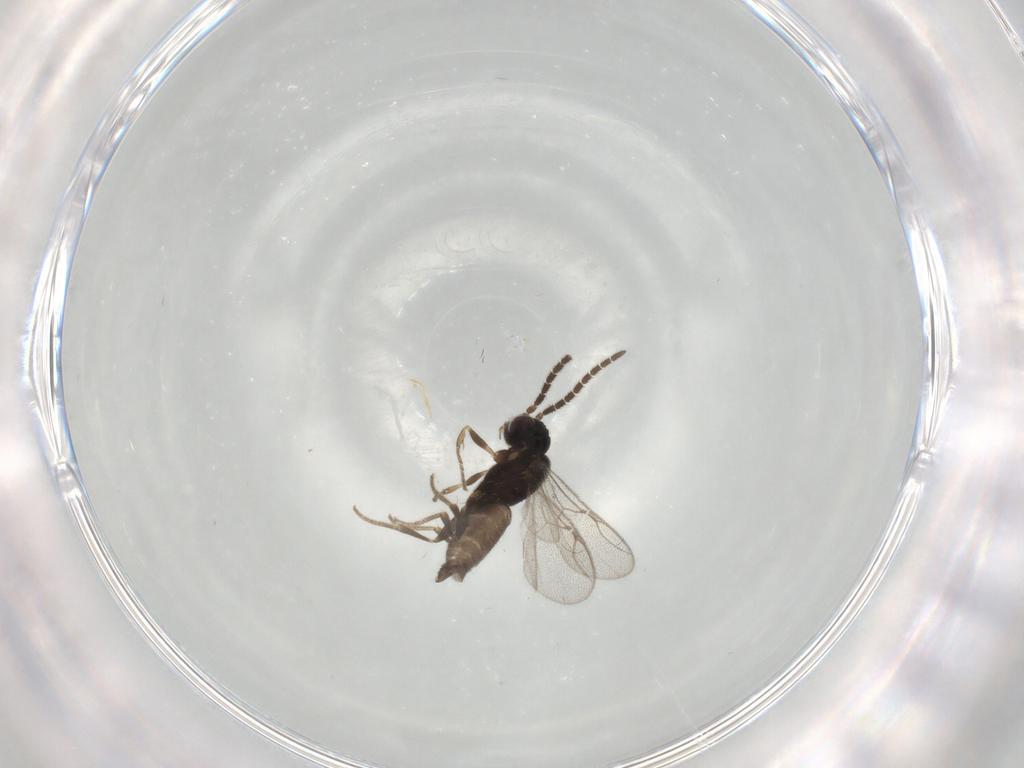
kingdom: Animalia
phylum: Arthropoda
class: Insecta
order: Hymenoptera
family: Dryinidae
